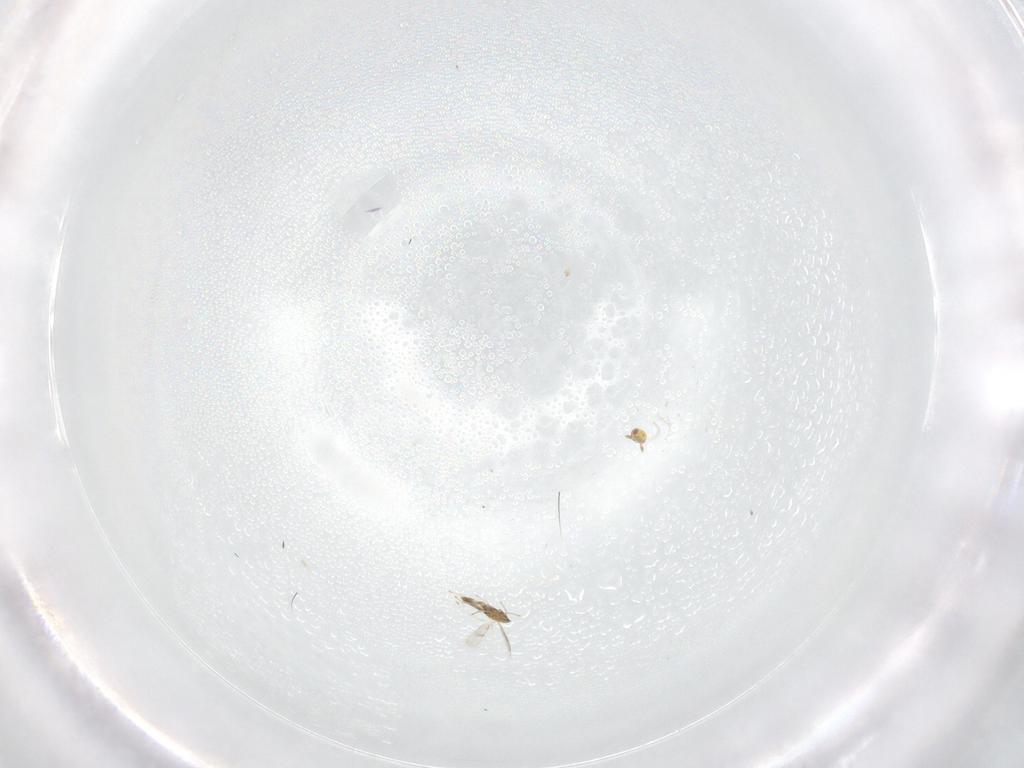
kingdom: Animalia
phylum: Arthropoda
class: Insecta
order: Hymenoptera
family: Eulophidae
